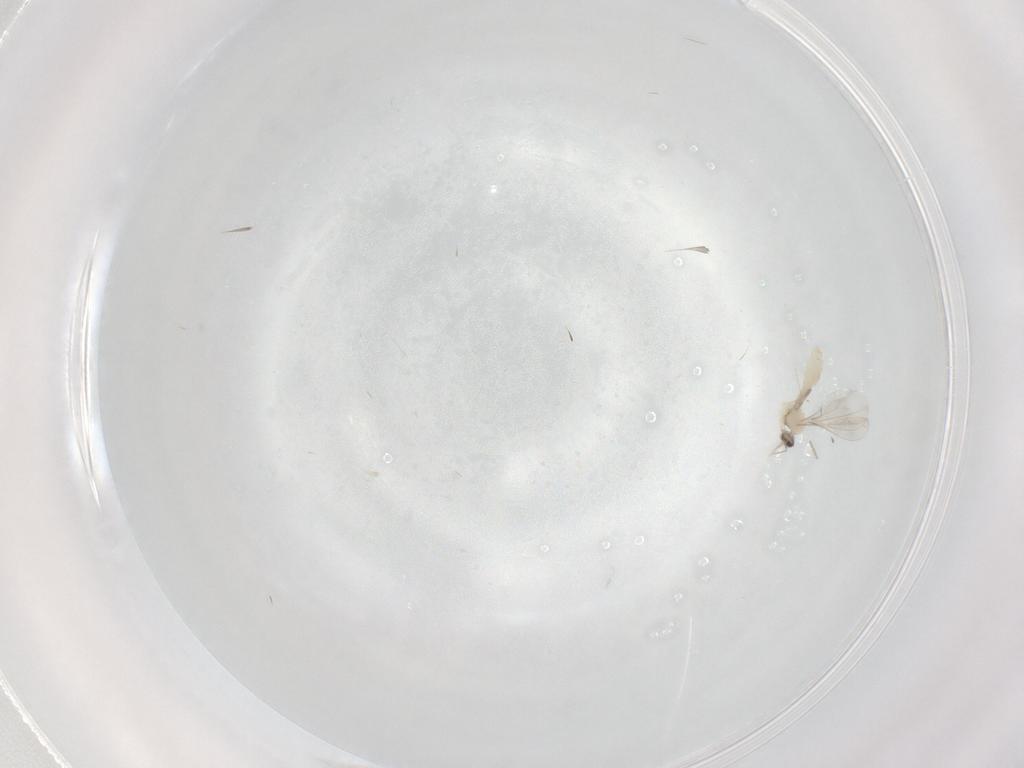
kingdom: Animalia
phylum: Arthropoda
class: Insecta
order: Diptera
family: Cecidomyiidae
